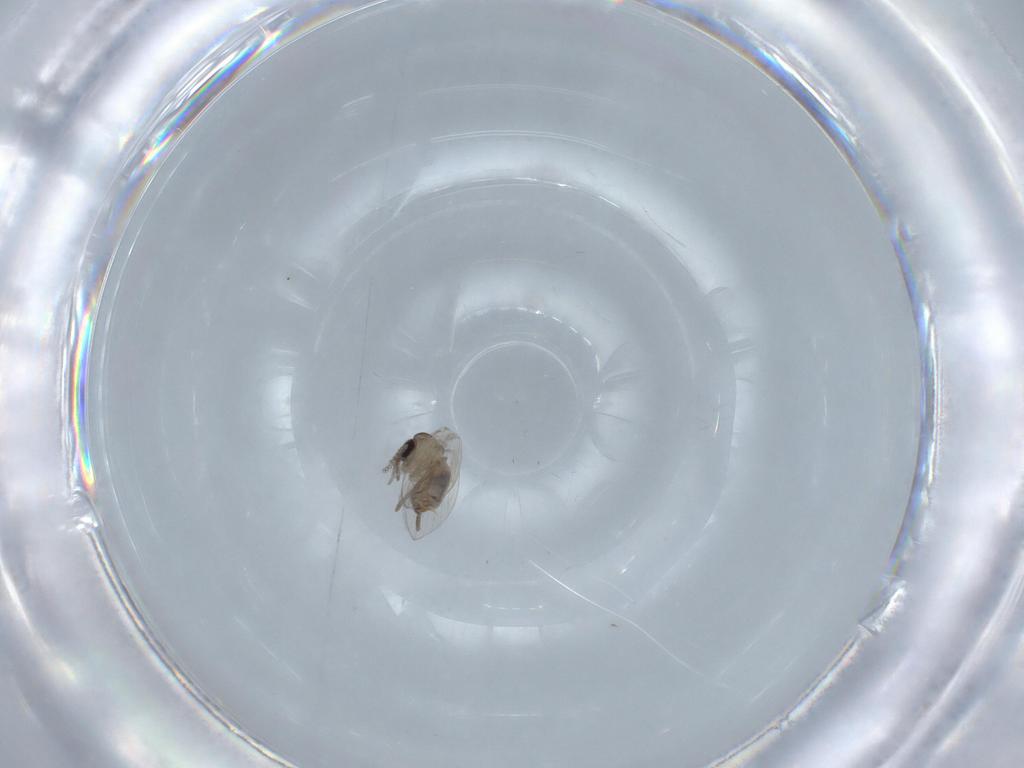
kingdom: Animalia
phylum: Arthropoda
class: Insecta
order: Diptera
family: Psychodidae
